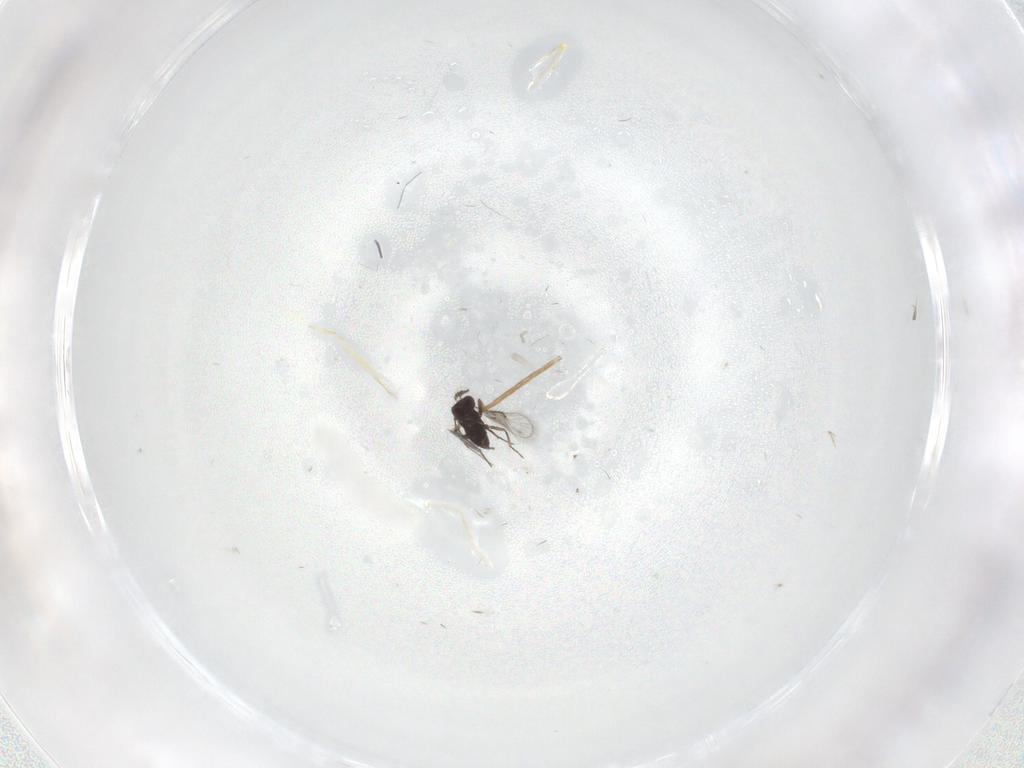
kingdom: Animalia
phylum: Arthropoda
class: Insecta
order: Hymenoptera
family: Trichogrammatidae
